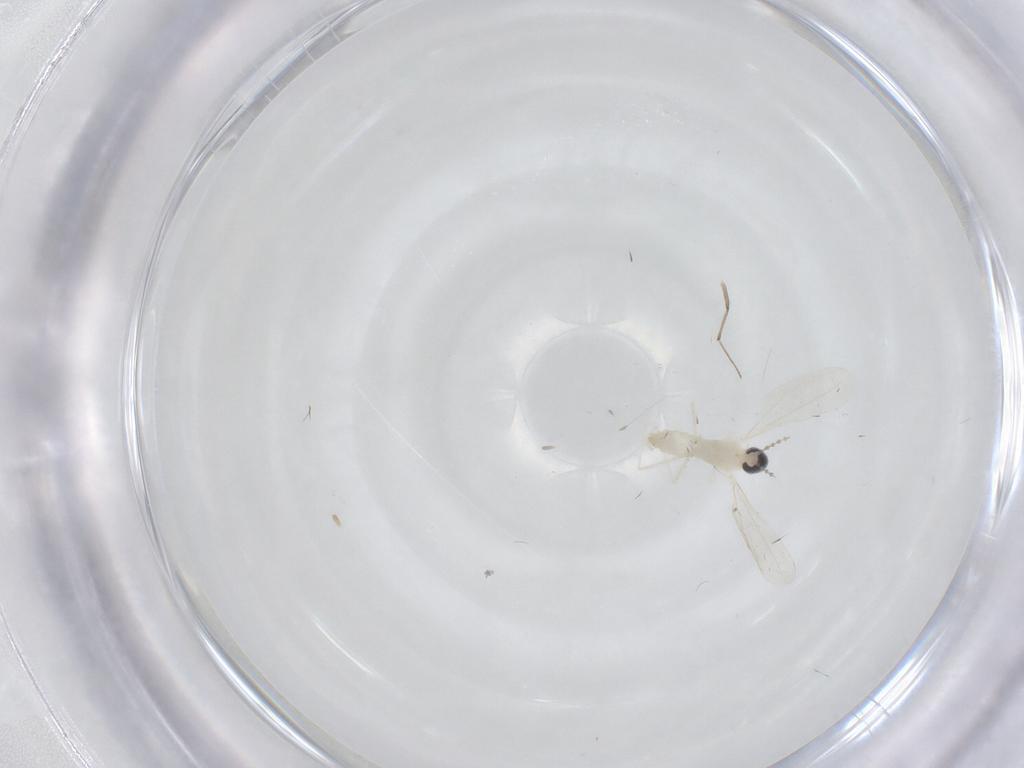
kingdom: Animalia
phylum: Arthropoda
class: Insecta
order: Diptera
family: Cecidomyiidae
